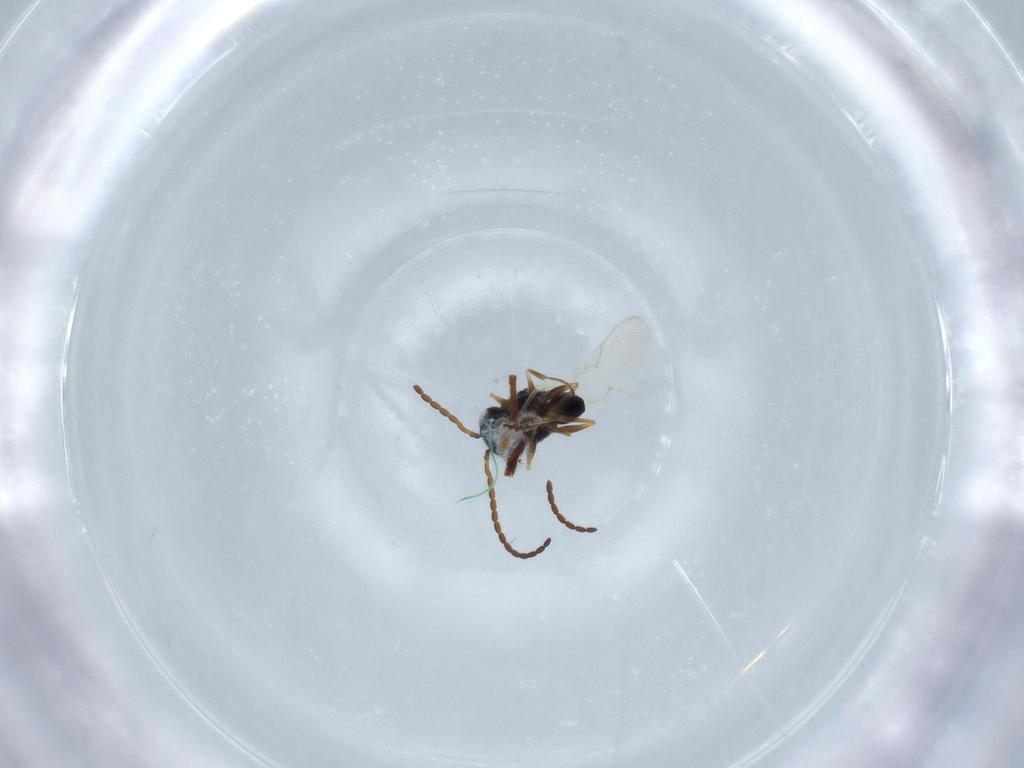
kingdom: Animalia
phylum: Arthropoda
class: Insecta
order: Hymenoptera
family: Figitidae
